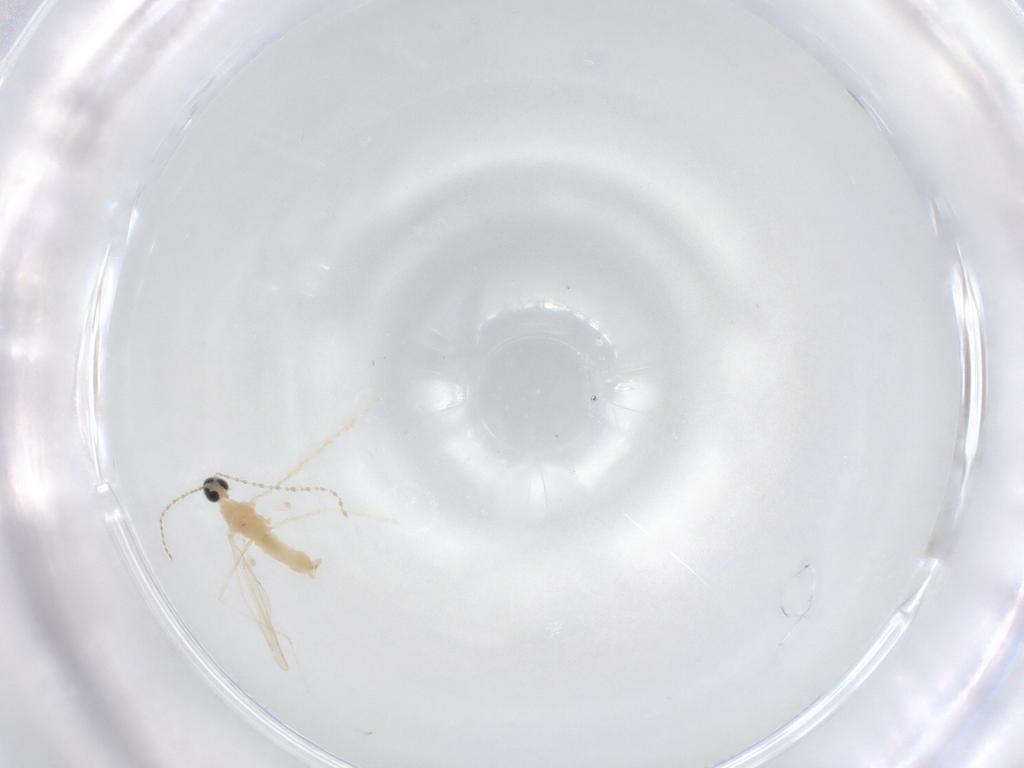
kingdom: Animalia
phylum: Arthropoda
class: Insecta
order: Diptera
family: Cecidomyiidae
